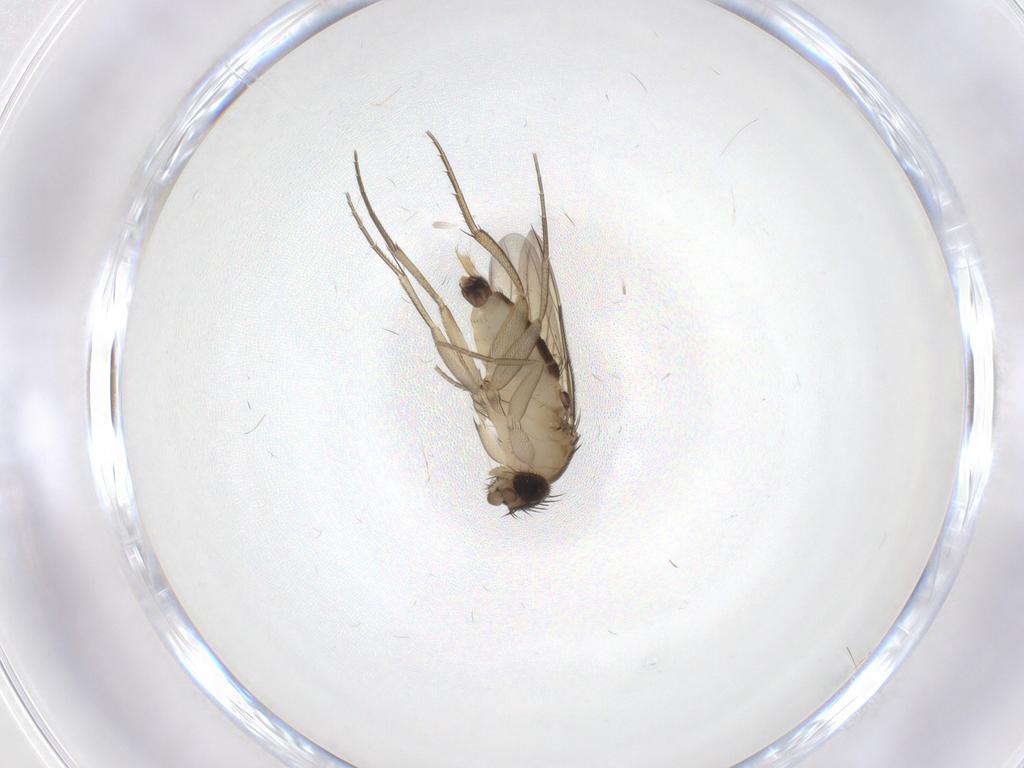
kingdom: Animalia
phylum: Arthropoda
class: Insecta
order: Diptera
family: Phoridae
